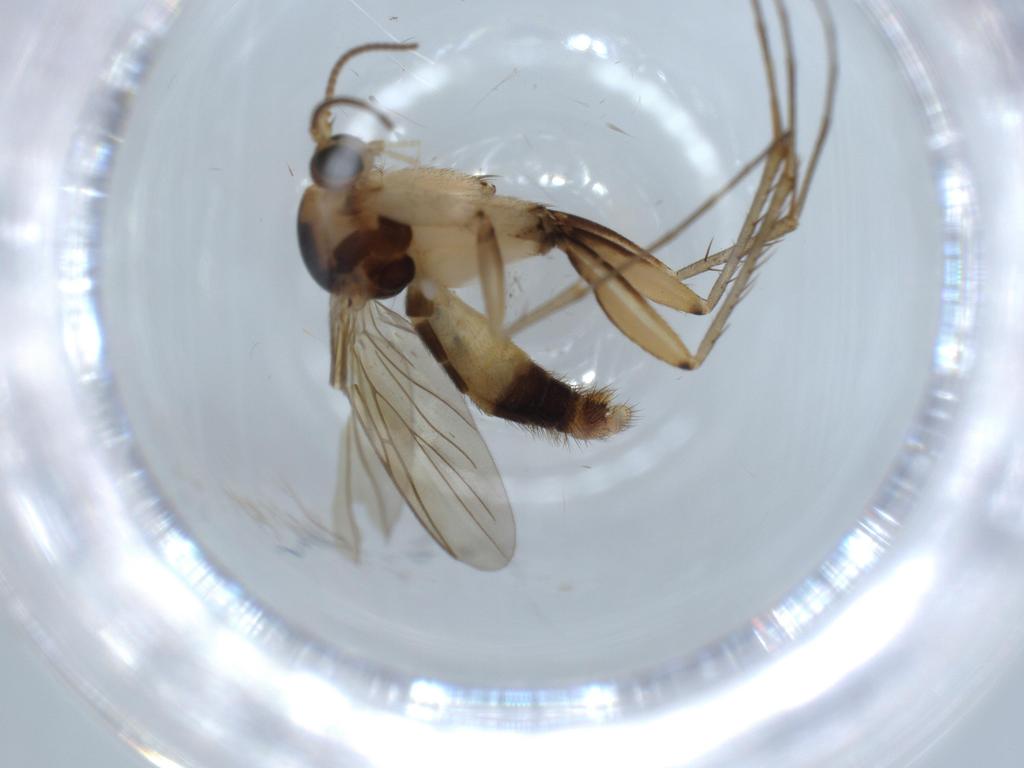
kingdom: Animalia
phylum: Arthropoda
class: Insecta
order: Diptera
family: Mycetophilidae
